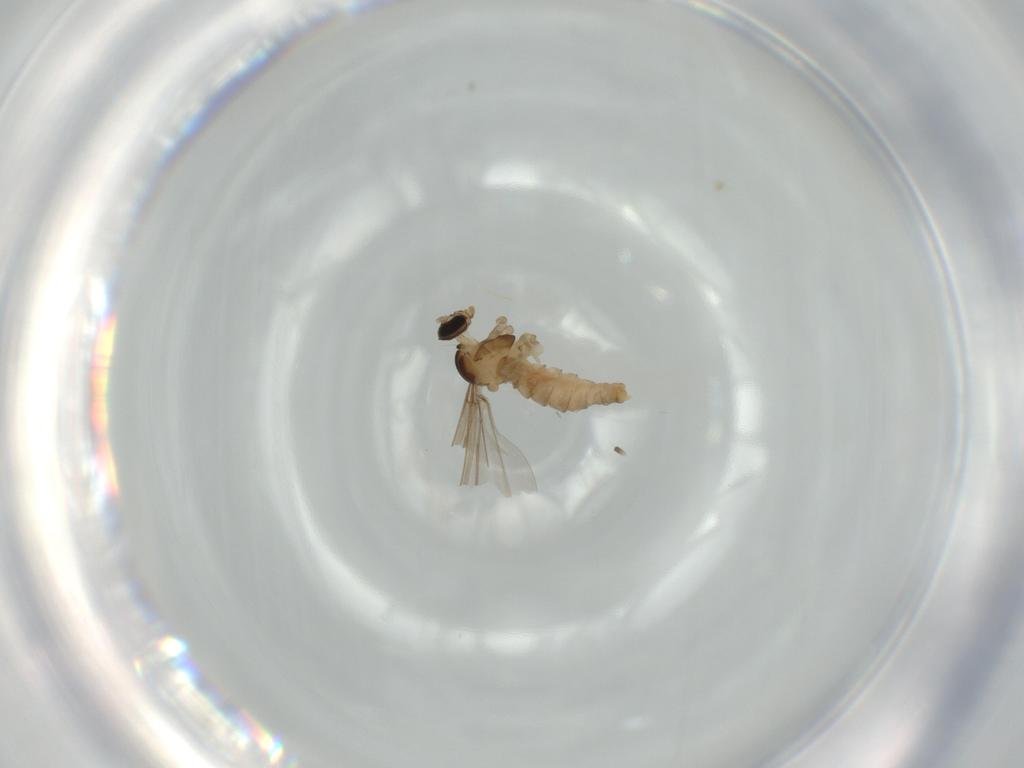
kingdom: Animalia
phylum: Arthropoda
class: Insecta
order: Diptera
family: Cecidomyiidae
